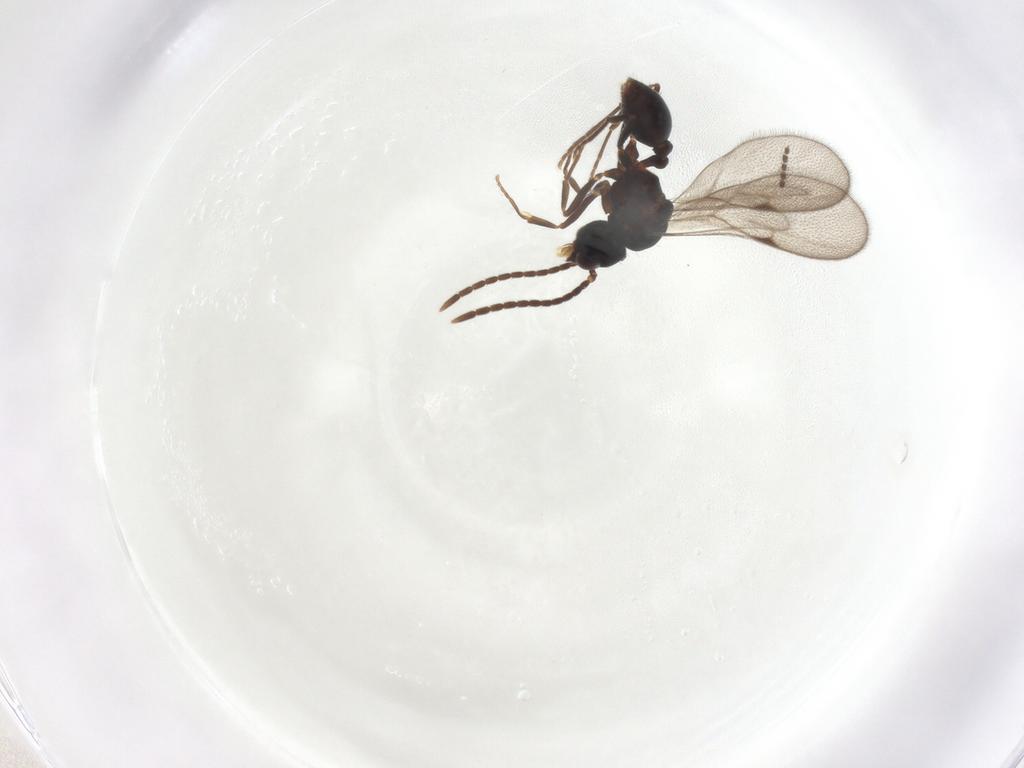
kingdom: Animalia
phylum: Arthropoda
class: Insecta
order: Hymenoptera
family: Formicidae
